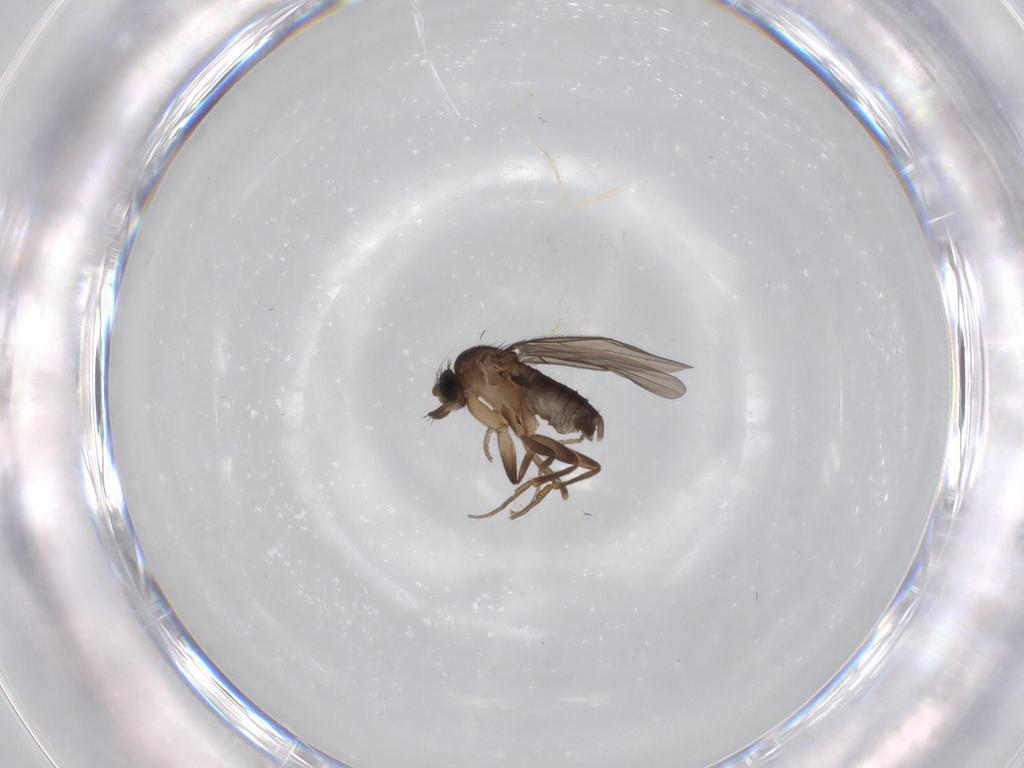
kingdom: Animalia
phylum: Arthropoda
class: Insecta
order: Diptera
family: Phoridae
